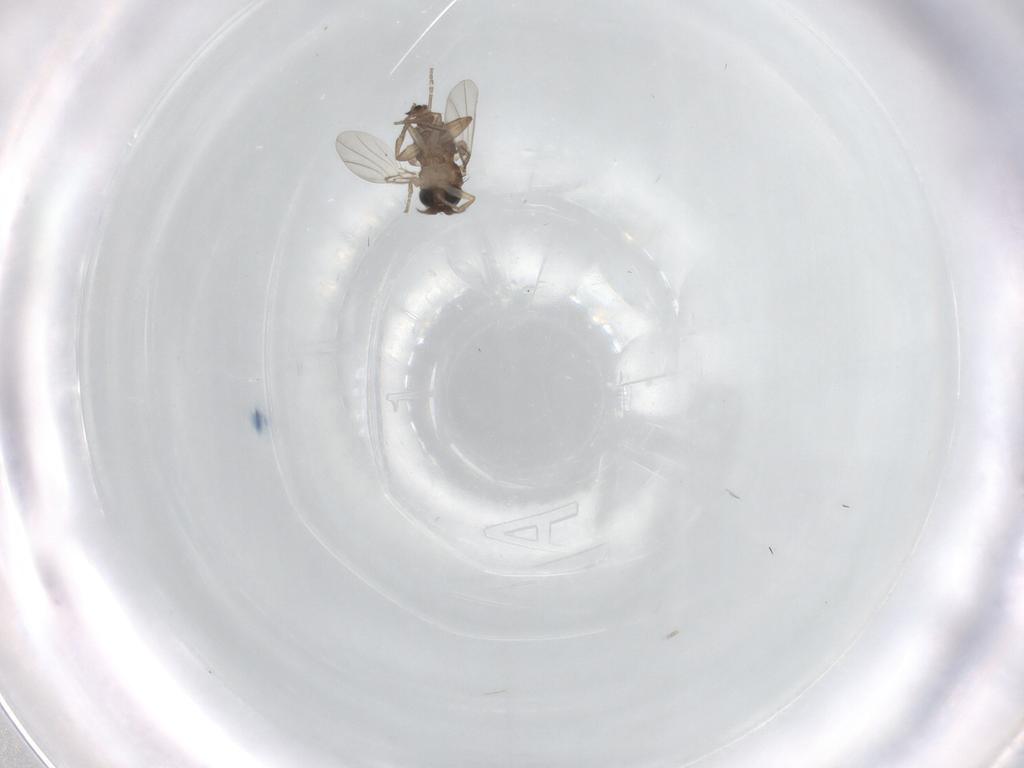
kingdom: Animalia
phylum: Arthropoda
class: Insecta
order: Diptera
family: Phoridae
